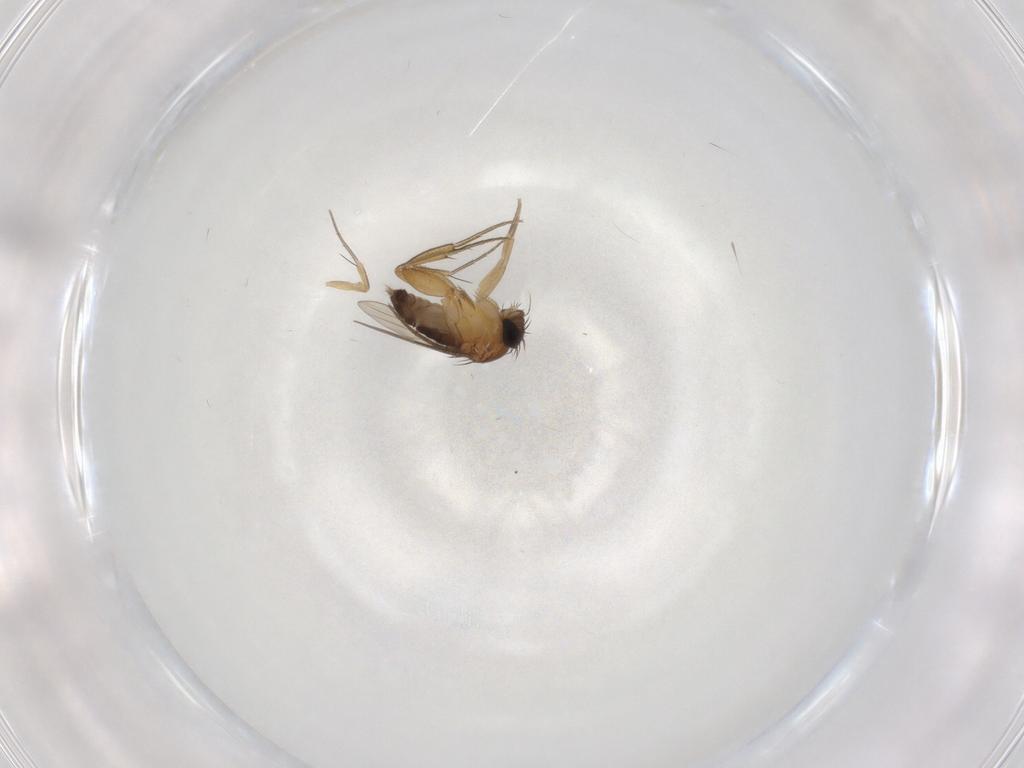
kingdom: Animalia
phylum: Arthropoda
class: Insecta
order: Diptera
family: Phoridae
